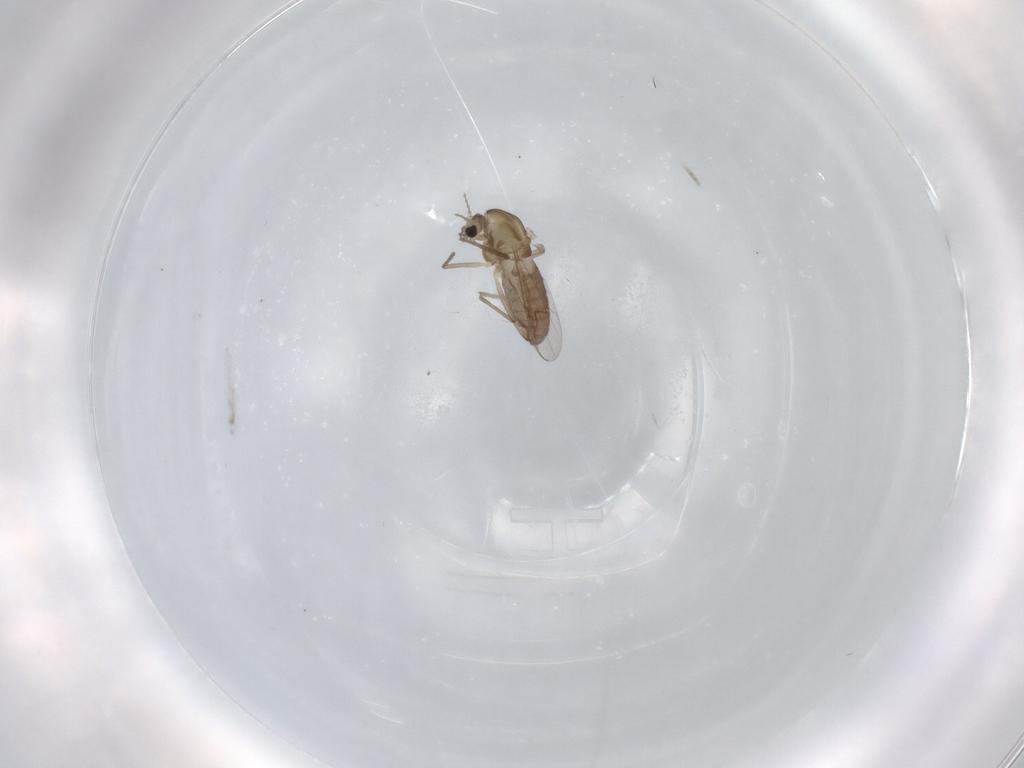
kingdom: Animalia
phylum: Arthropoda
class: Insecta
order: Diptera
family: Chironomidae
